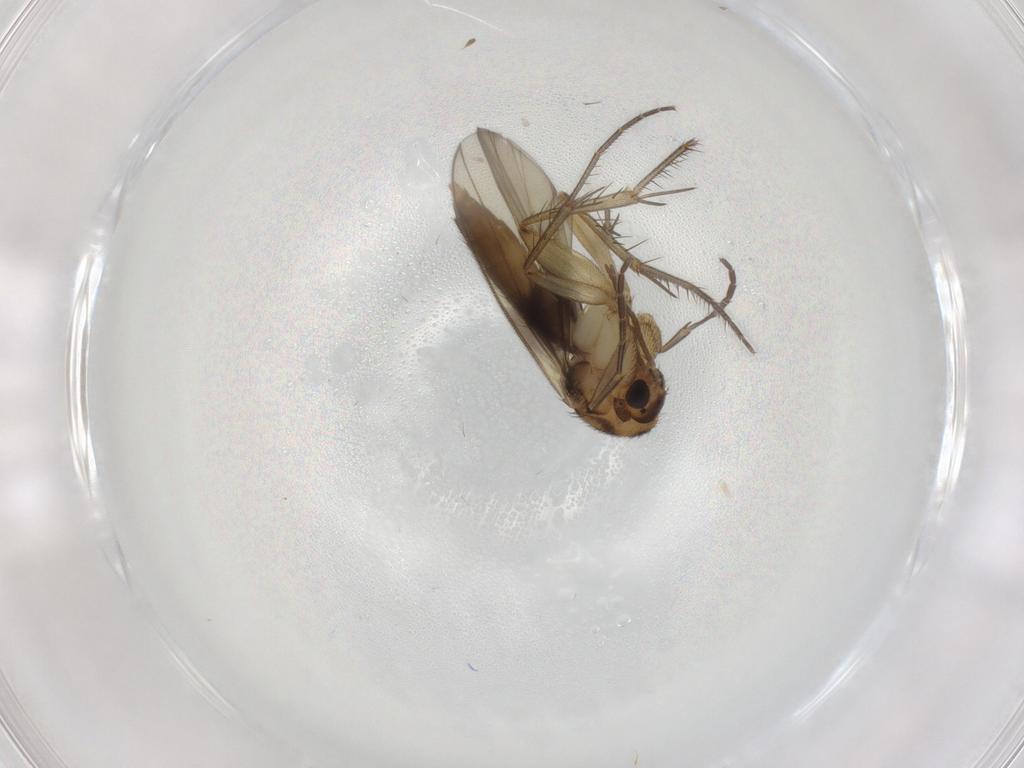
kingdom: Animalia
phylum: Arthropoda
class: Insecta
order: Diptera
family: Mycetophilidae
